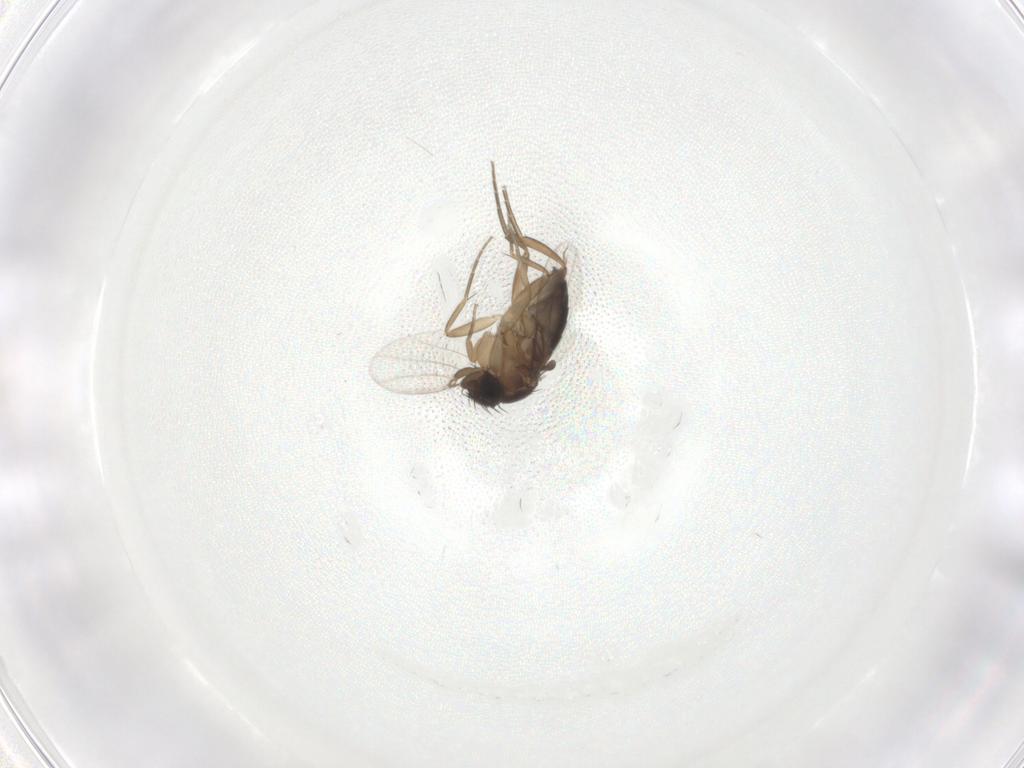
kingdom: Animalia
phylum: Arthropoda
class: Insecta
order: Diptera
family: Phoridae
